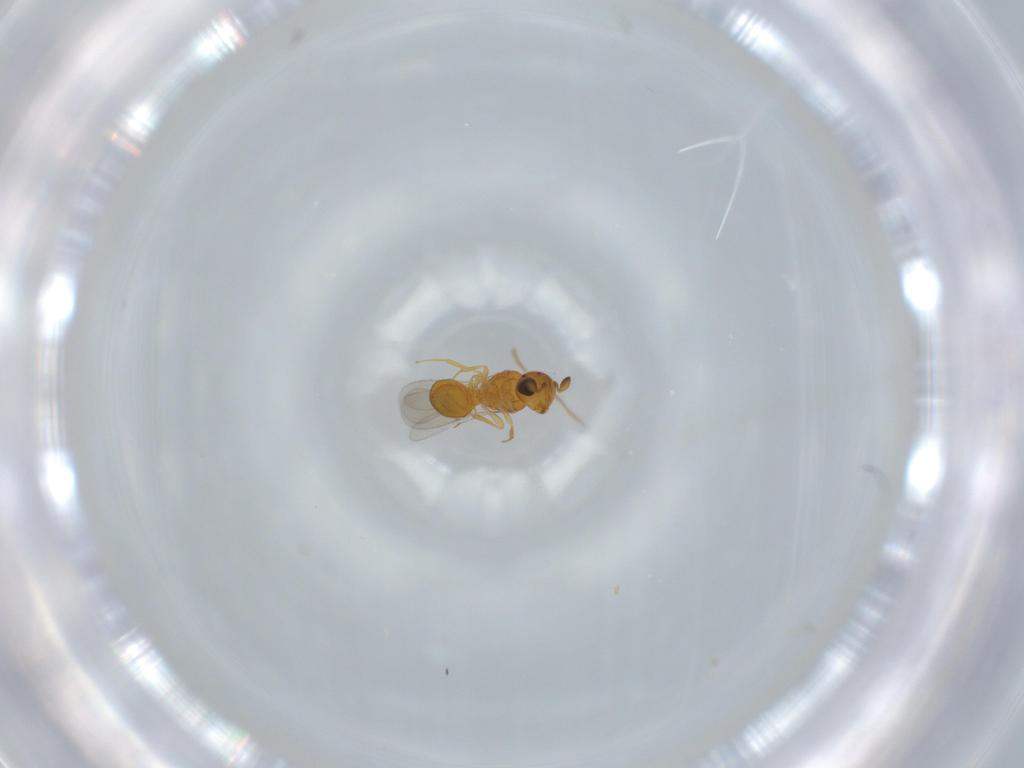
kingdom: Animalia
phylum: Arthropoda
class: Insecta
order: Hymenoptera
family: Scelionidae
